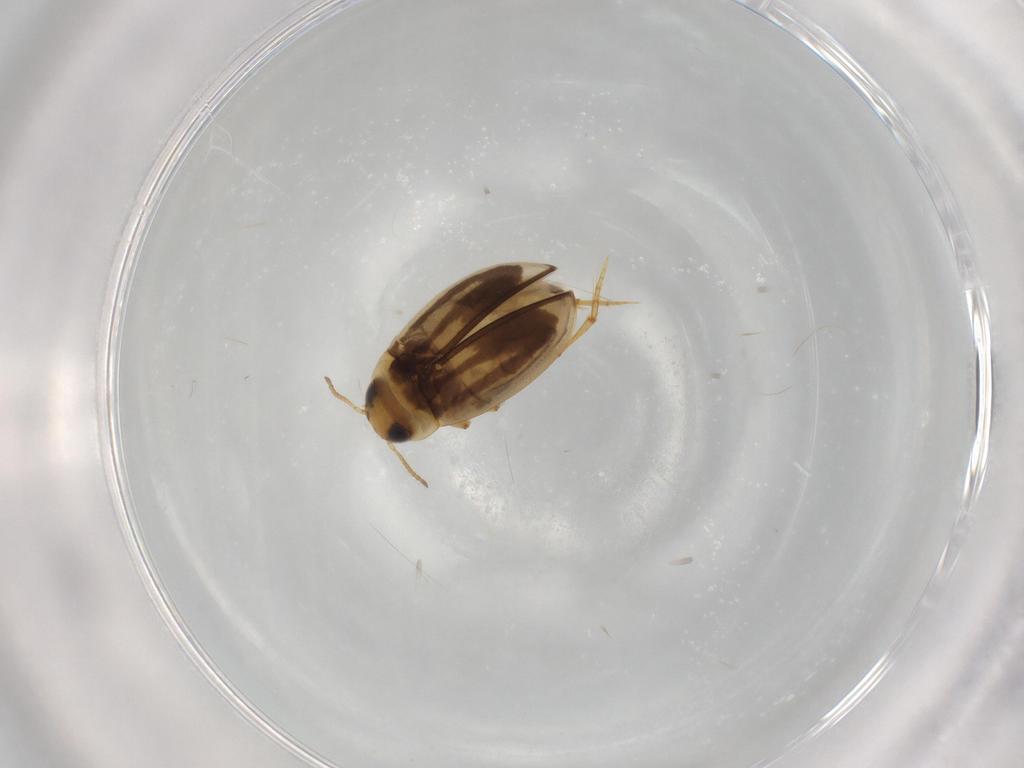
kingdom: Animalia
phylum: Arthropoda
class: Insecta
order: Coleoptera
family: Dytiscidae
